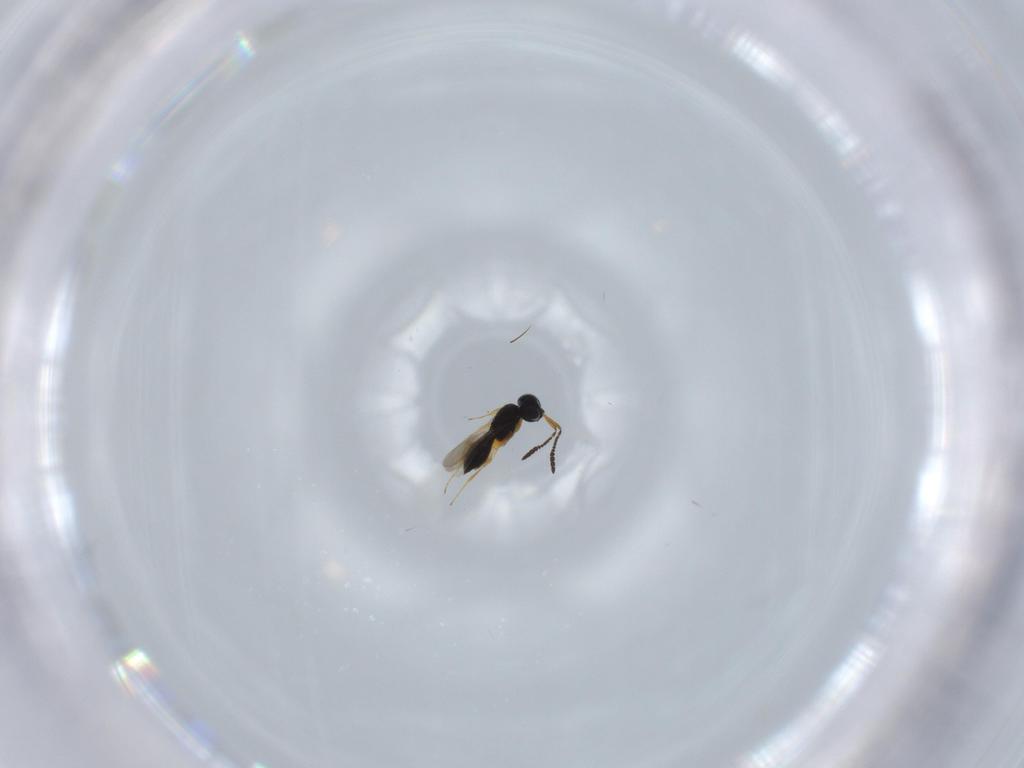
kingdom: Animalia
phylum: Arthropoda
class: Insecta
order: Hymenoptera
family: Scelionidae
